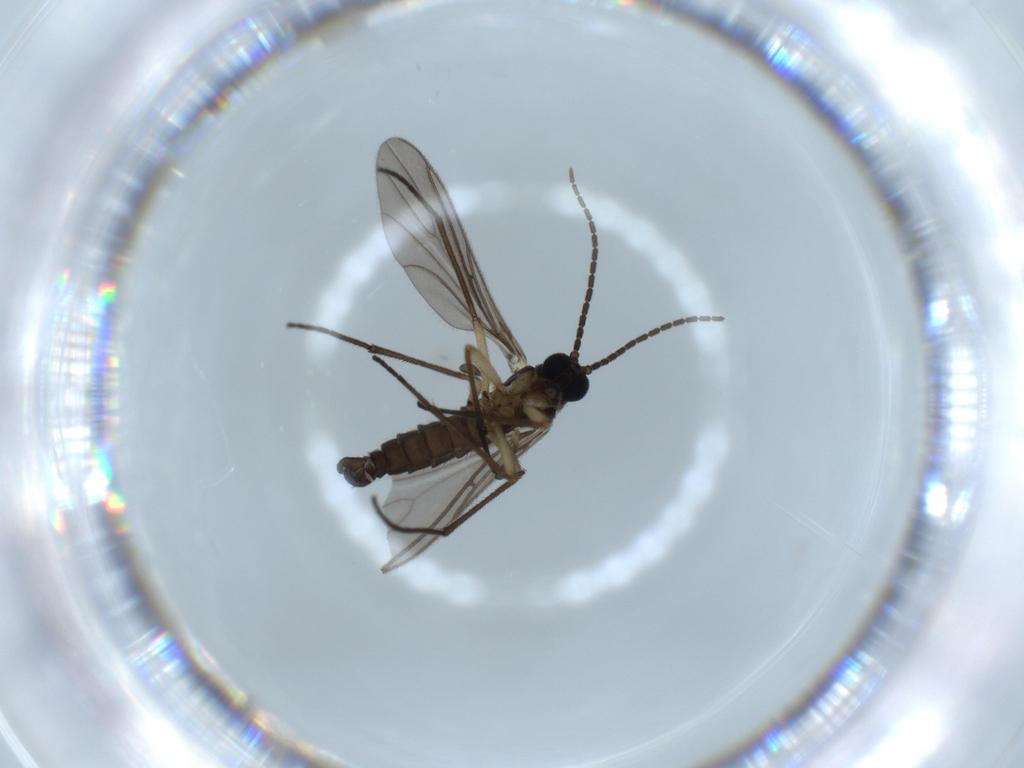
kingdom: Animalia
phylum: Arthropoda
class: Insecta
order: Diptera
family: Sciaridae
